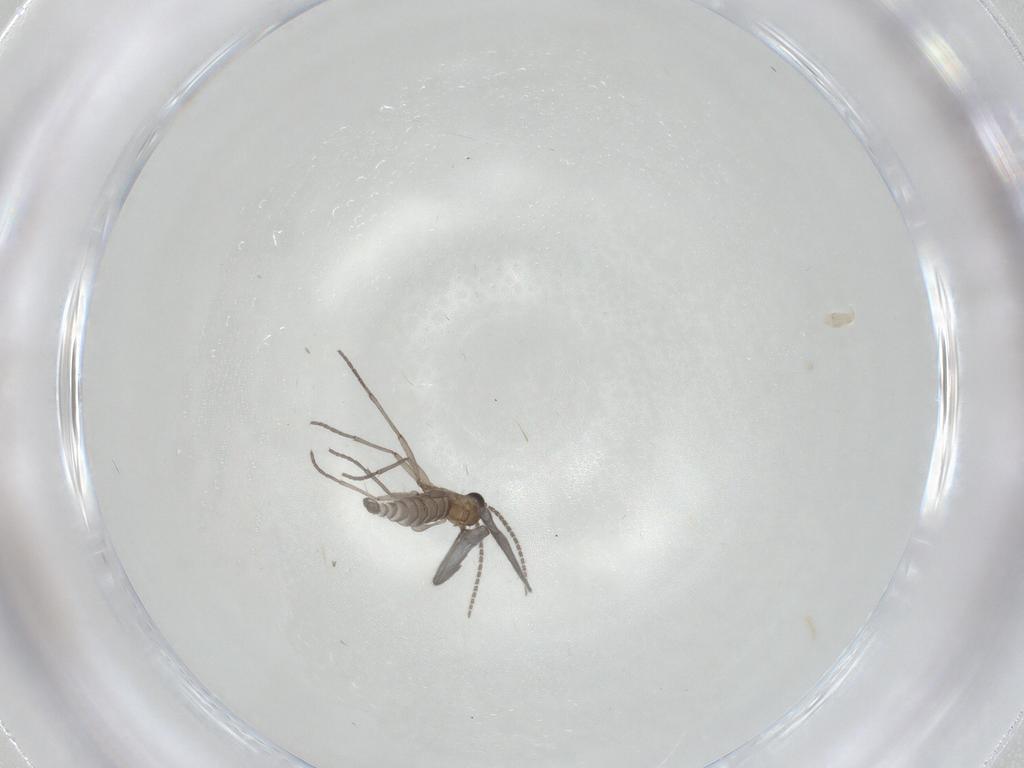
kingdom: Animalia
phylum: Arthropoda
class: Insecta
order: Diptera
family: Sciaridae
